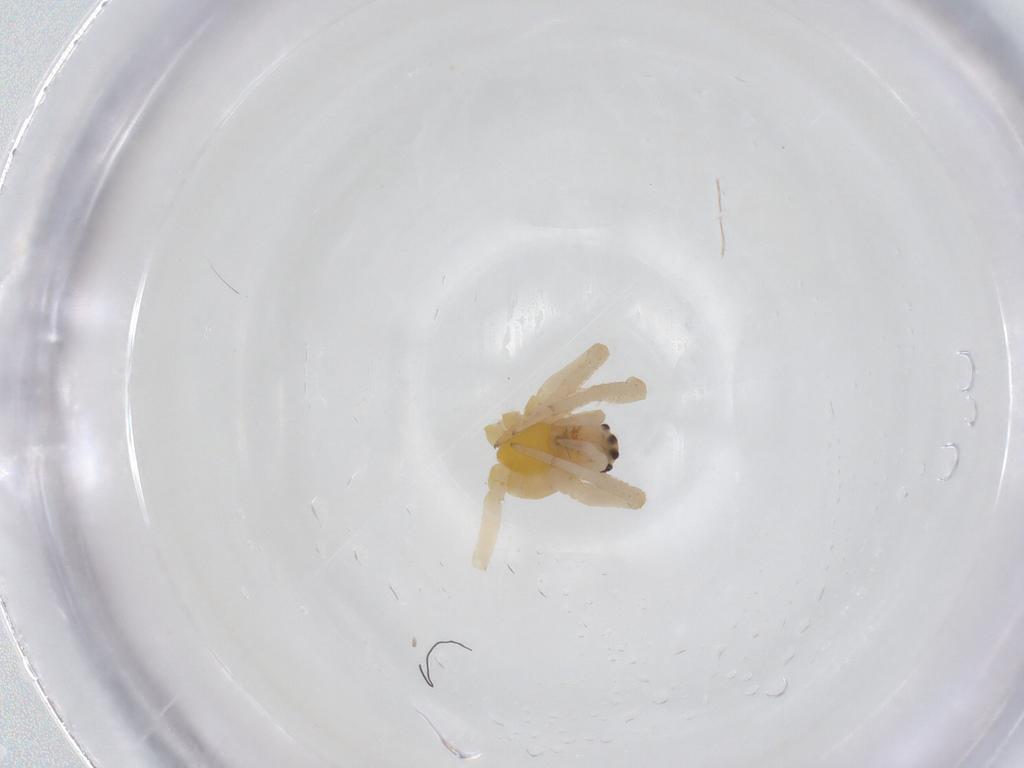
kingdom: Animalia
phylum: Arthropoda
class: Arachnida
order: Araneae
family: Araneidae
